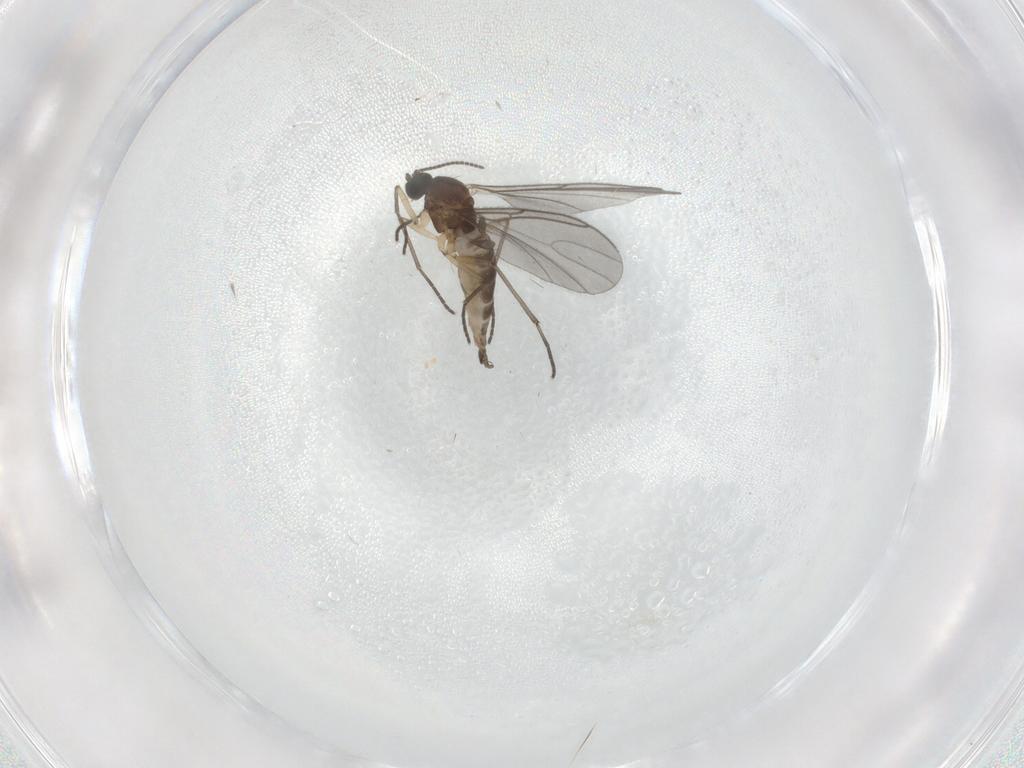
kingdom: Animalia
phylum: Arthropoda
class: Insecta
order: Diptera
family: Sciaridae
